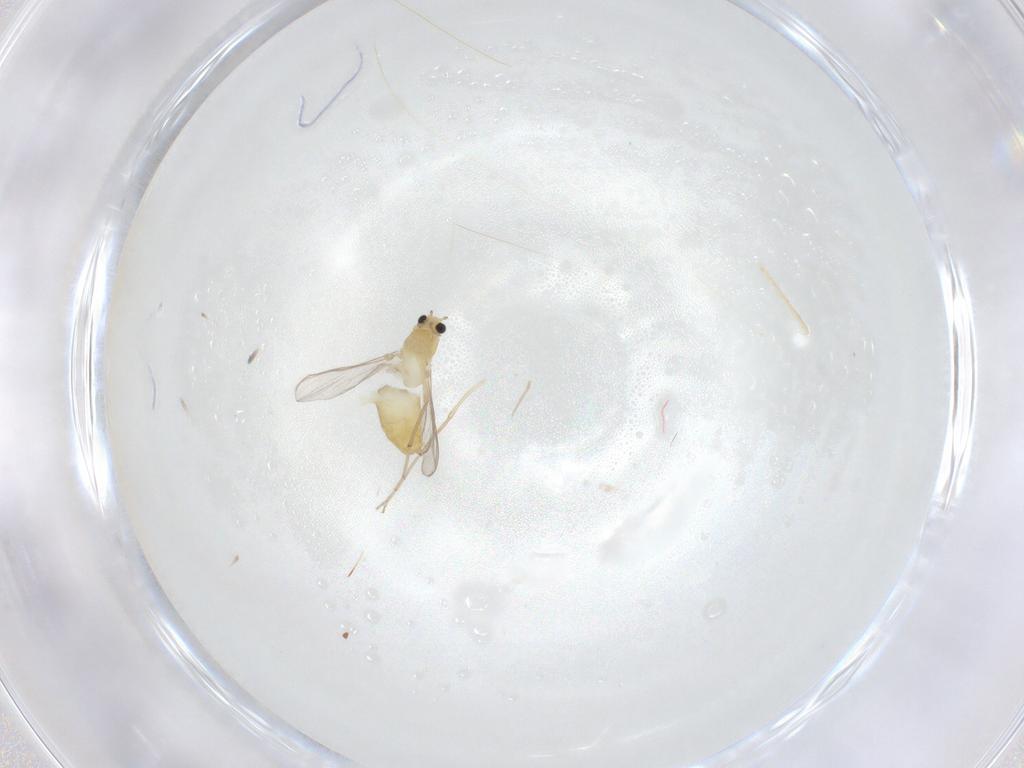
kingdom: Animalia
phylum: Arthropoda
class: Insecta
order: Diptera
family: Chironomidae
